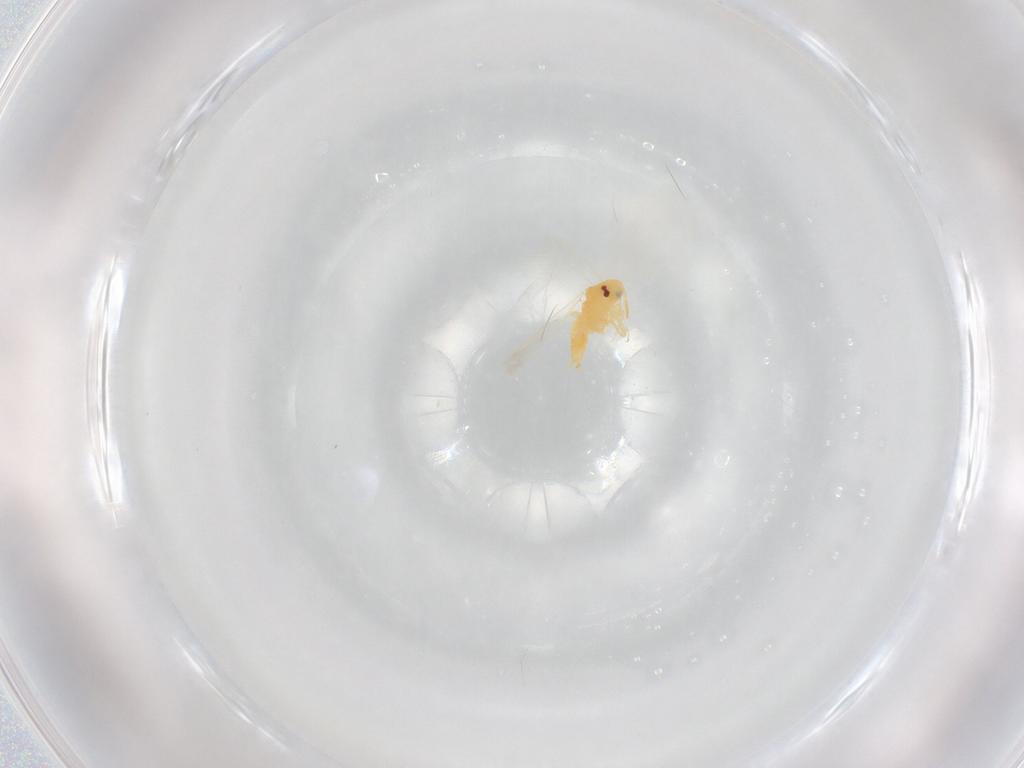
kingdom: Animalia
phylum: Arthropoda
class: Insecta
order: Hemiptera
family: Aleyrodidae
